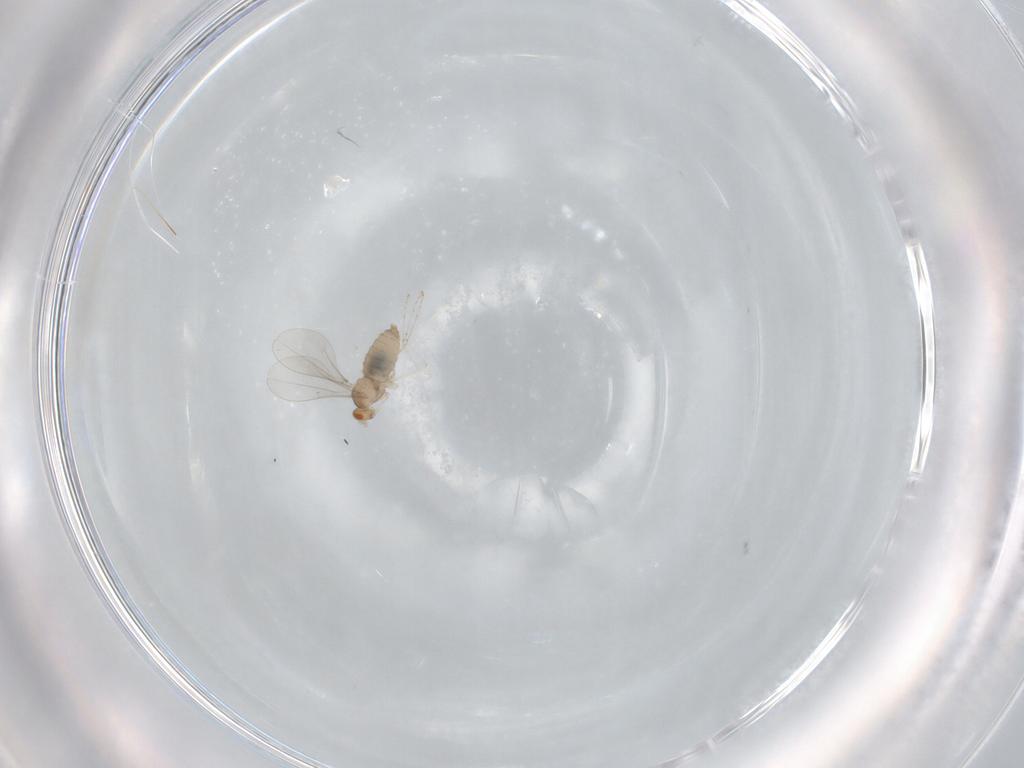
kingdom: Animalia
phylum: Arthropoda
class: Insecta
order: Diptera
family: Cecidomyiidae
